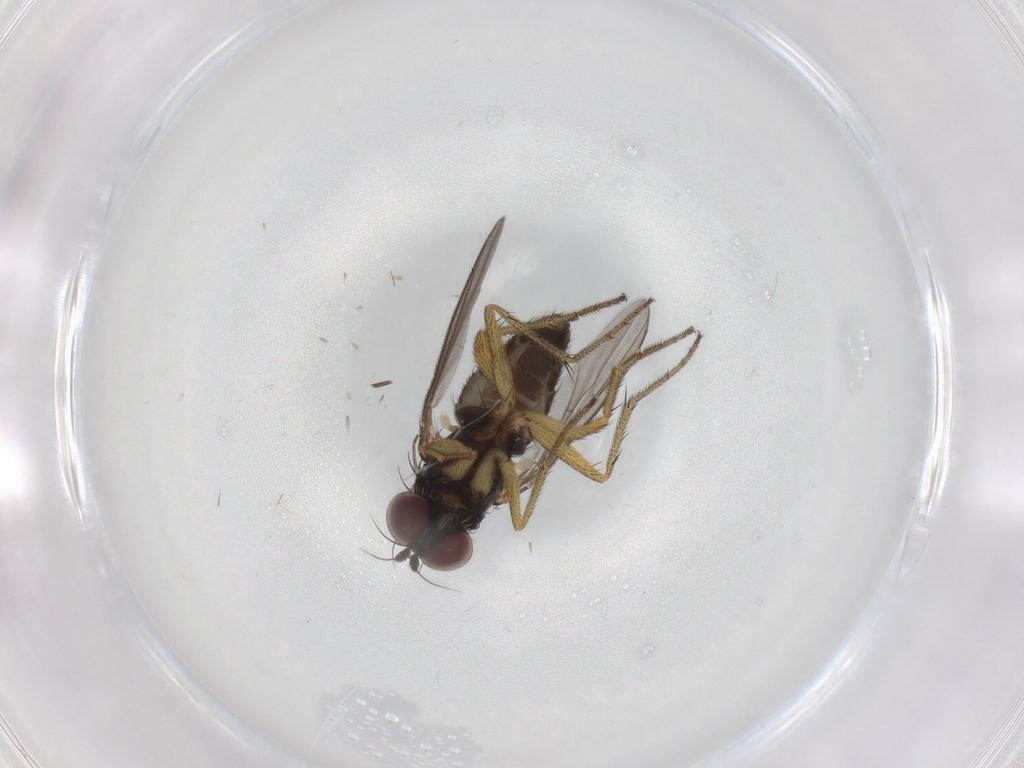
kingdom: Animalia
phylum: Arthropoda
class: Insecta
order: Diptera
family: Dolichopodidae
